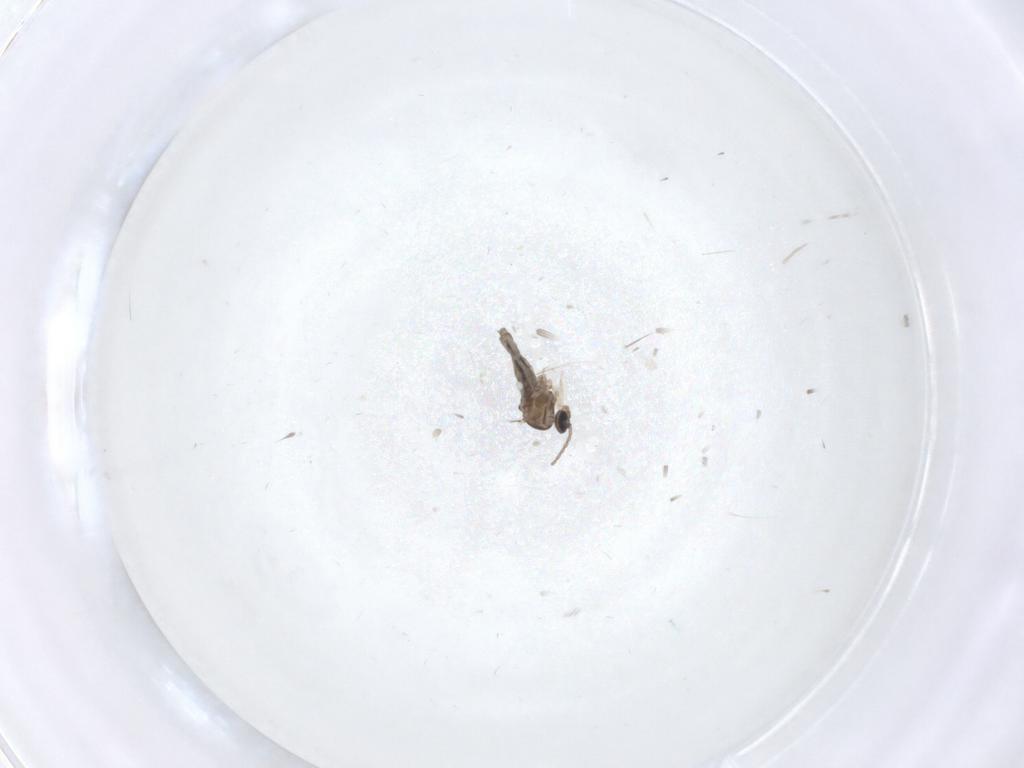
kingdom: Animalia
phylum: Arthropoda
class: Insecta
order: Diptera
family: Cecidomyiidae
